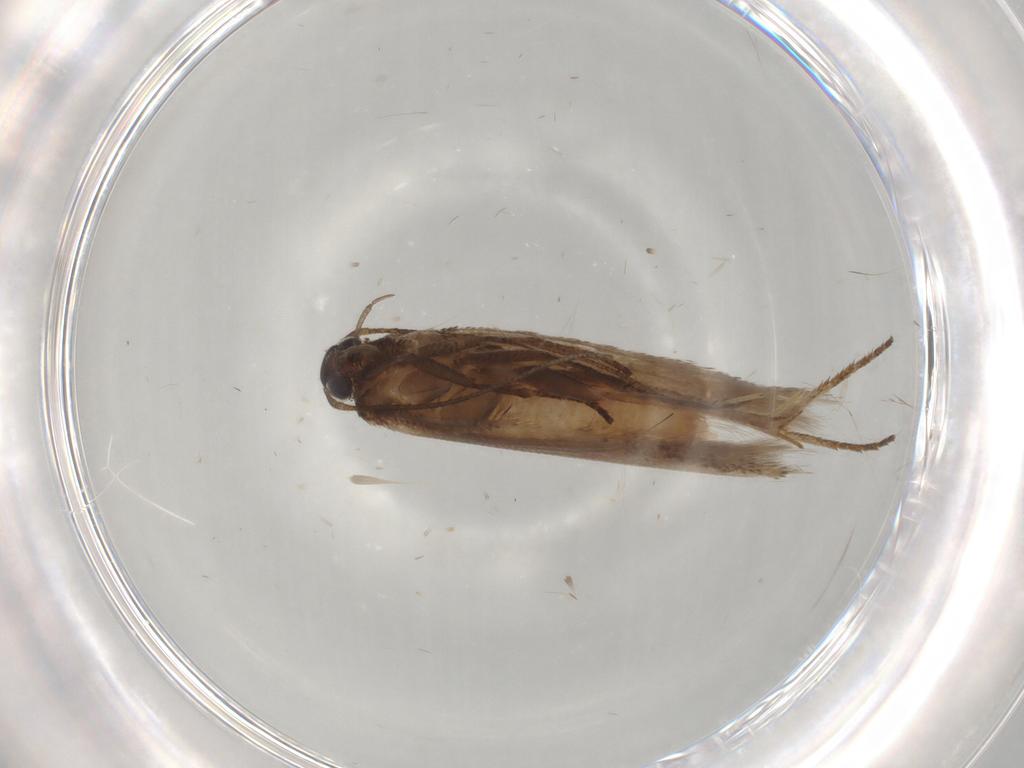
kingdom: Animalia
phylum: Arthropoda
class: Insecta
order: Lepidoptera
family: Gelechiidae
